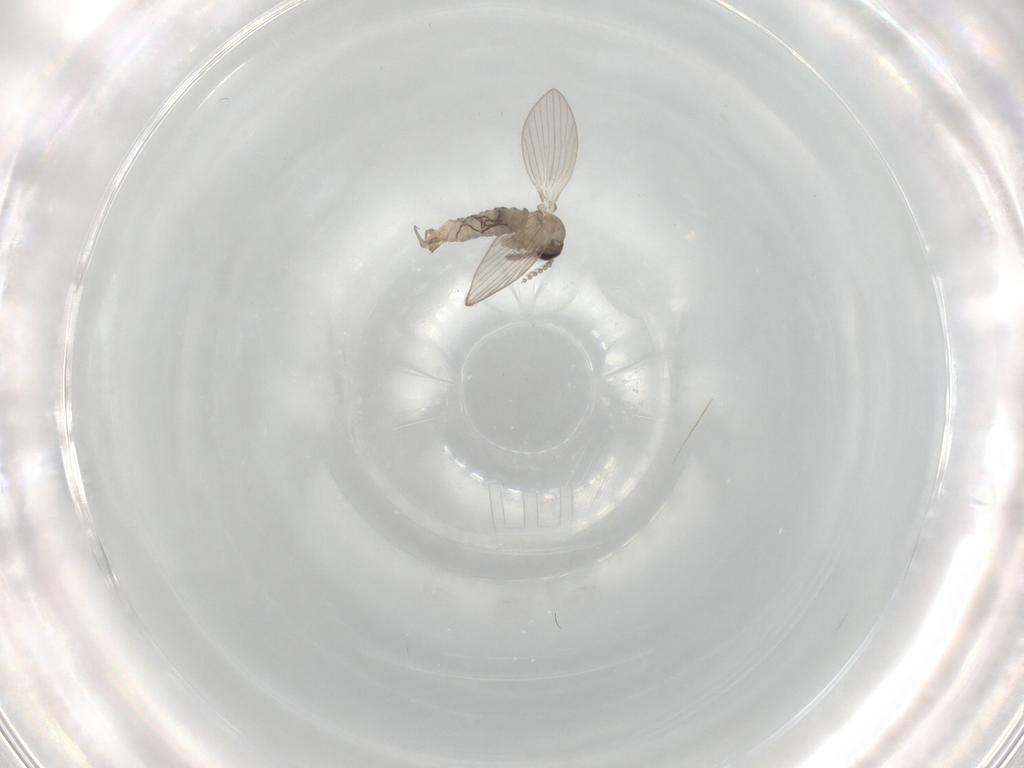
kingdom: Animalia
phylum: Arthropoda
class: Insecta
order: Diptera
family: Psychodidae
